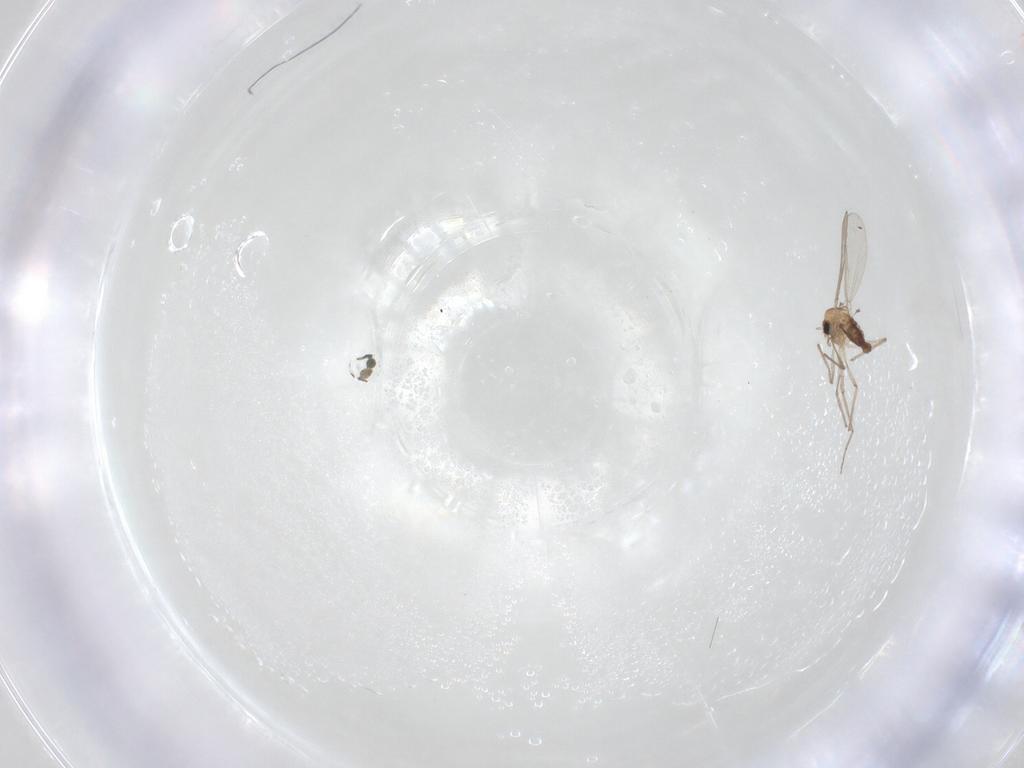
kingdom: Animalia
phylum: Arthropoda
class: Insecta
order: Diptera
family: Chironomidae
